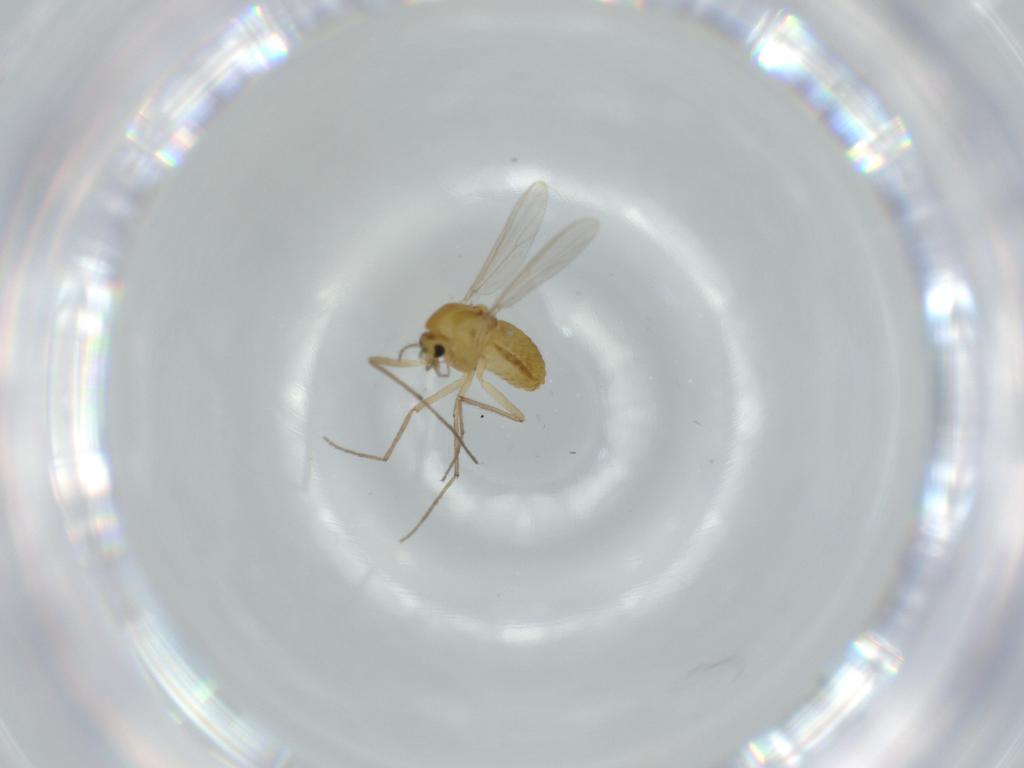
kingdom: Animalia
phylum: Arthropoda
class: Insecta
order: Diptera
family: Chironomidae
